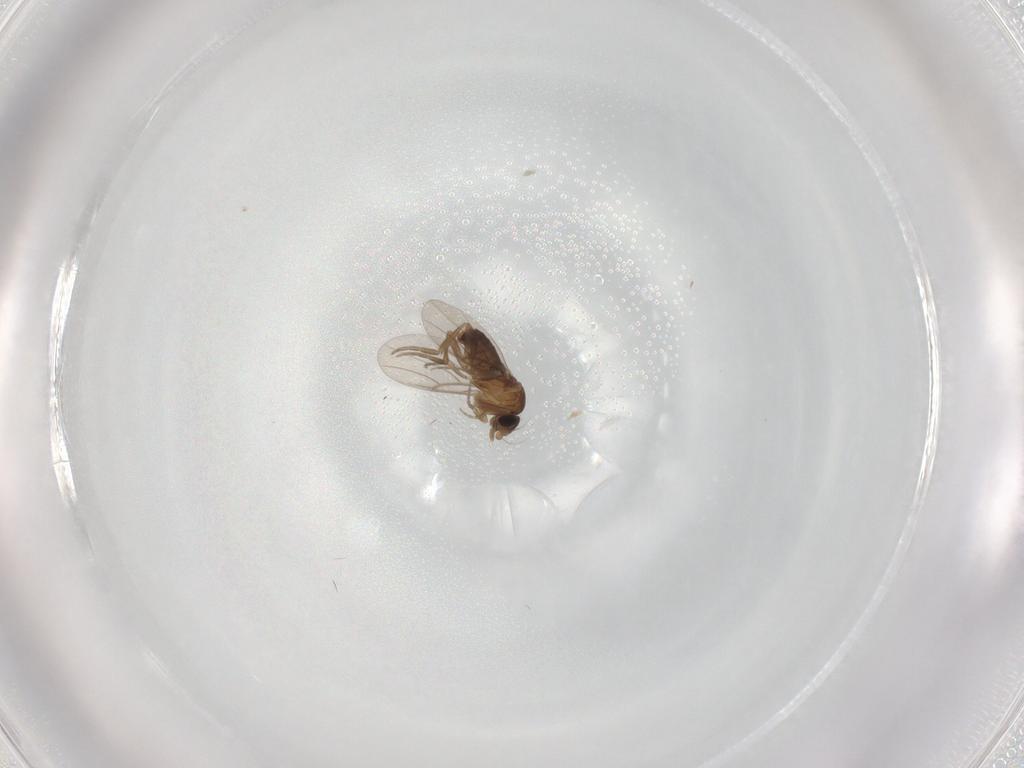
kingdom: Animalia
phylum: Arthropoda
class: Insecta
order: Diptera
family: Phoridae
